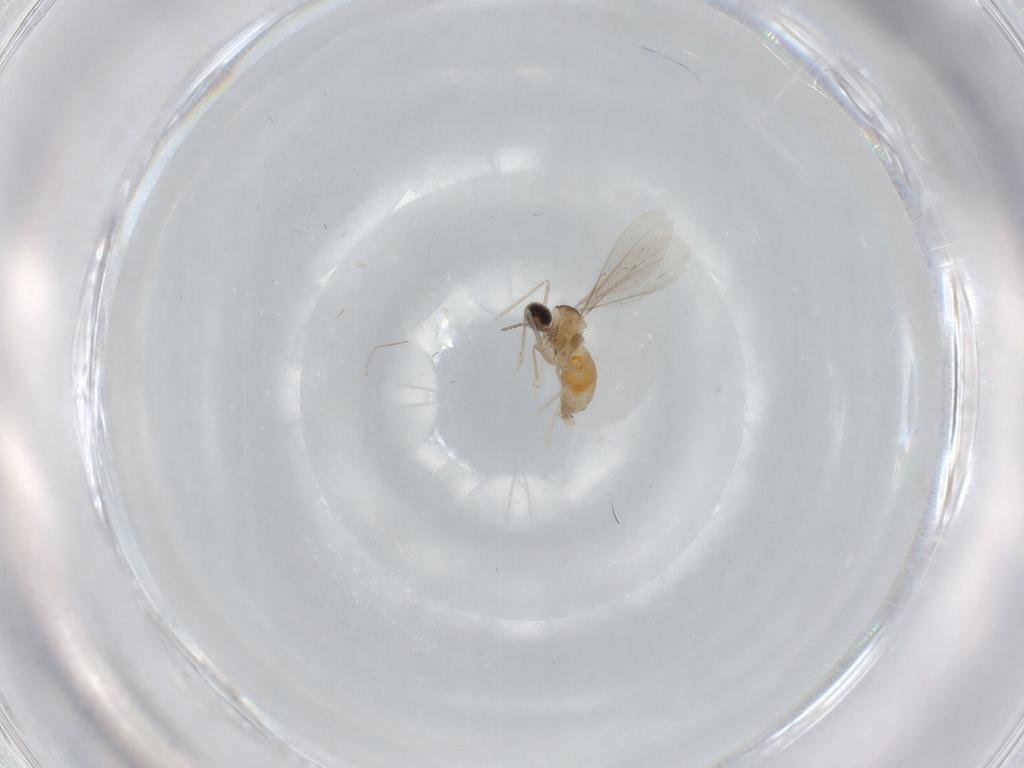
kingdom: Animalia
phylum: Arthropoda
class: Insecta
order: Diptera
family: Cecidomyiidae
